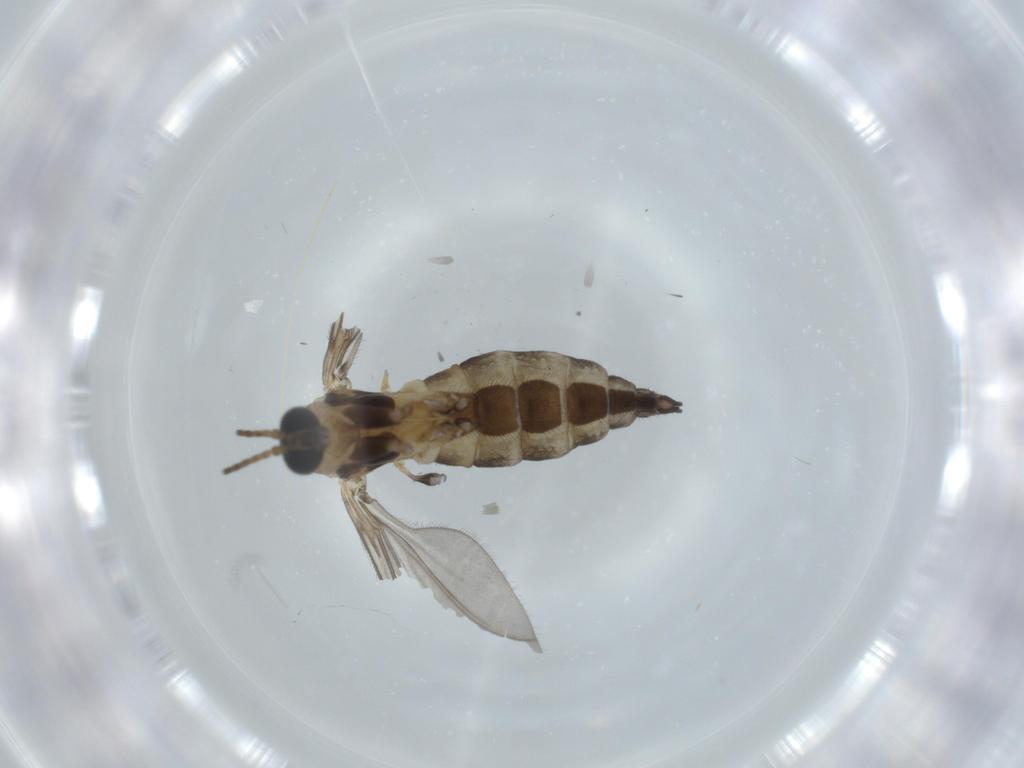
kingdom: Animalia
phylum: Arthropoda
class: Insecta
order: Diptera
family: Sciaridae
